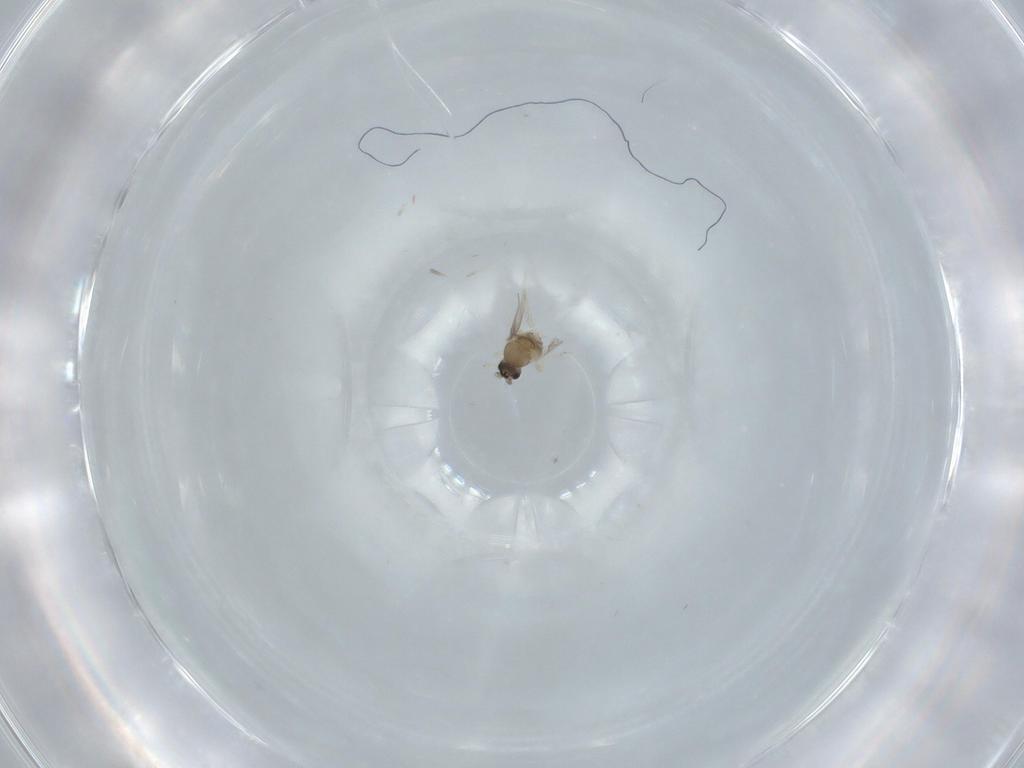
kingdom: Animalia
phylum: Arthropoda
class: Insecta
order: Diptera
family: Cecidomyiidae
